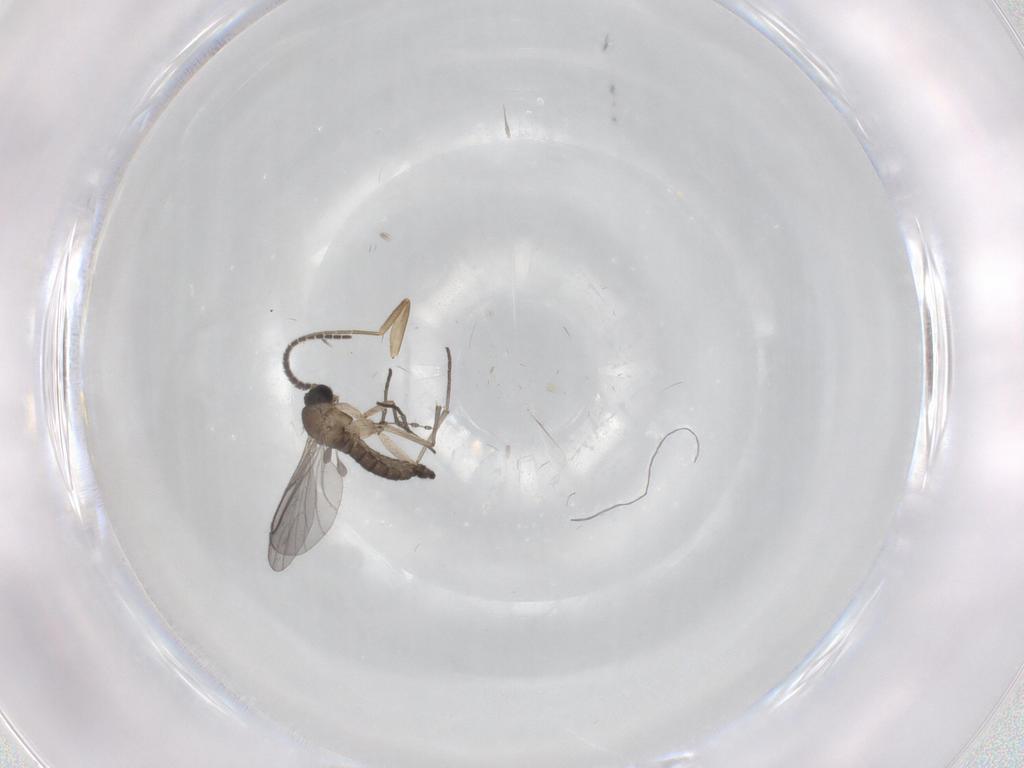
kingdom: Animalia
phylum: Arthropoda
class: Insecta
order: Diptera
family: Sciaridae
